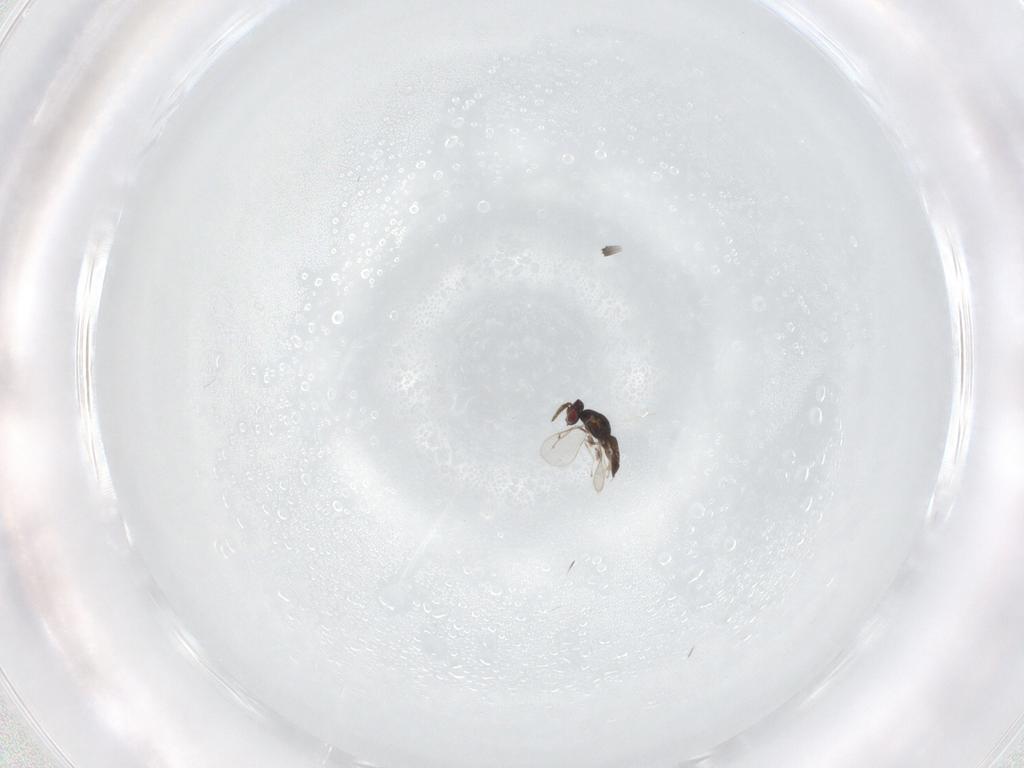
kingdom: Animalia
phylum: Arthropoda
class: Insecta
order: Hymenoptera
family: Eulophidae
